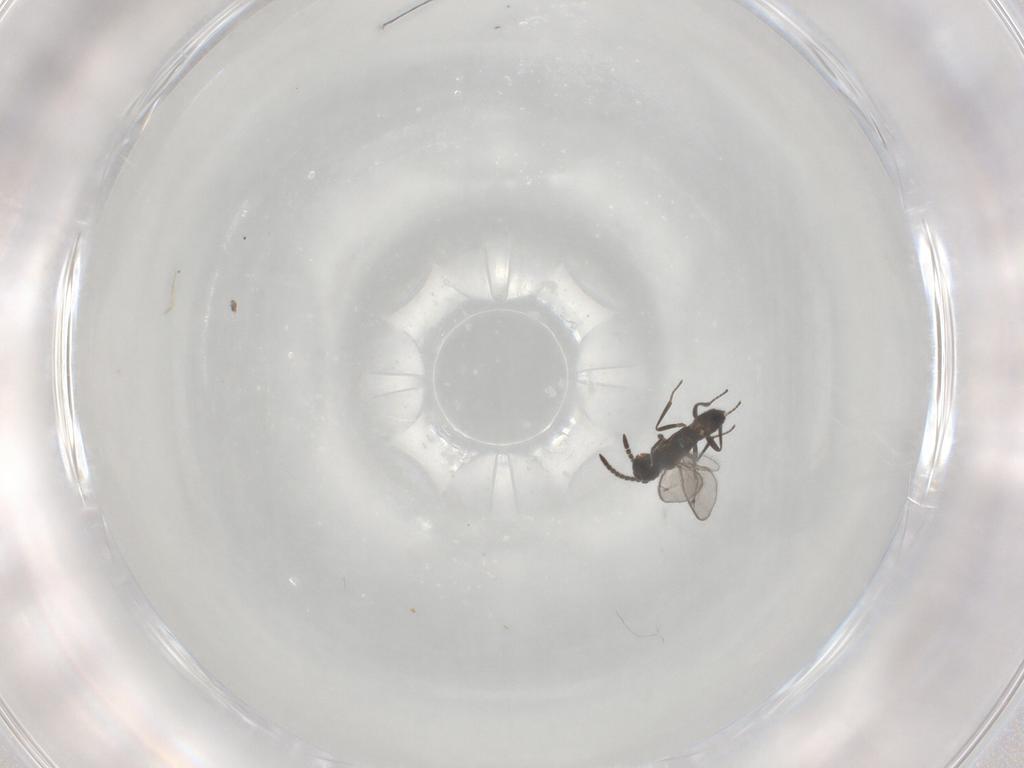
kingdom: Animalia
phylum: Arthropoda
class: Insecta
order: Hymenoptera
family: Eupelmidae
